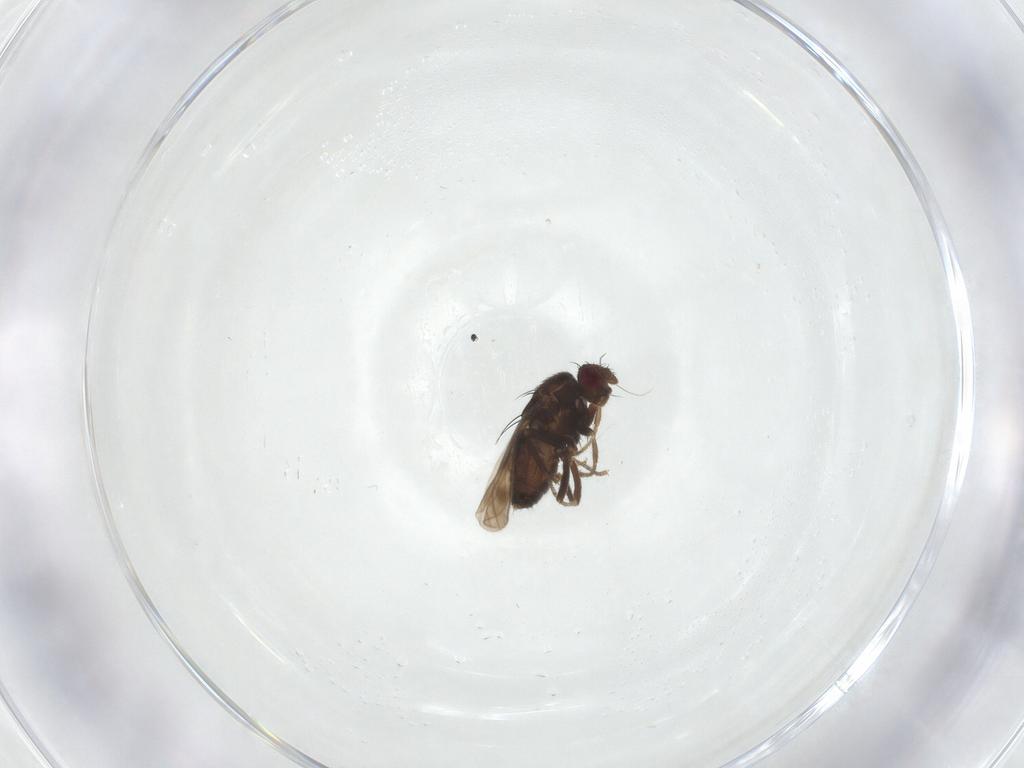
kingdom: Animalia
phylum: Arthropoda
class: Insecta
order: Diptera
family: Sphaeroceridae
